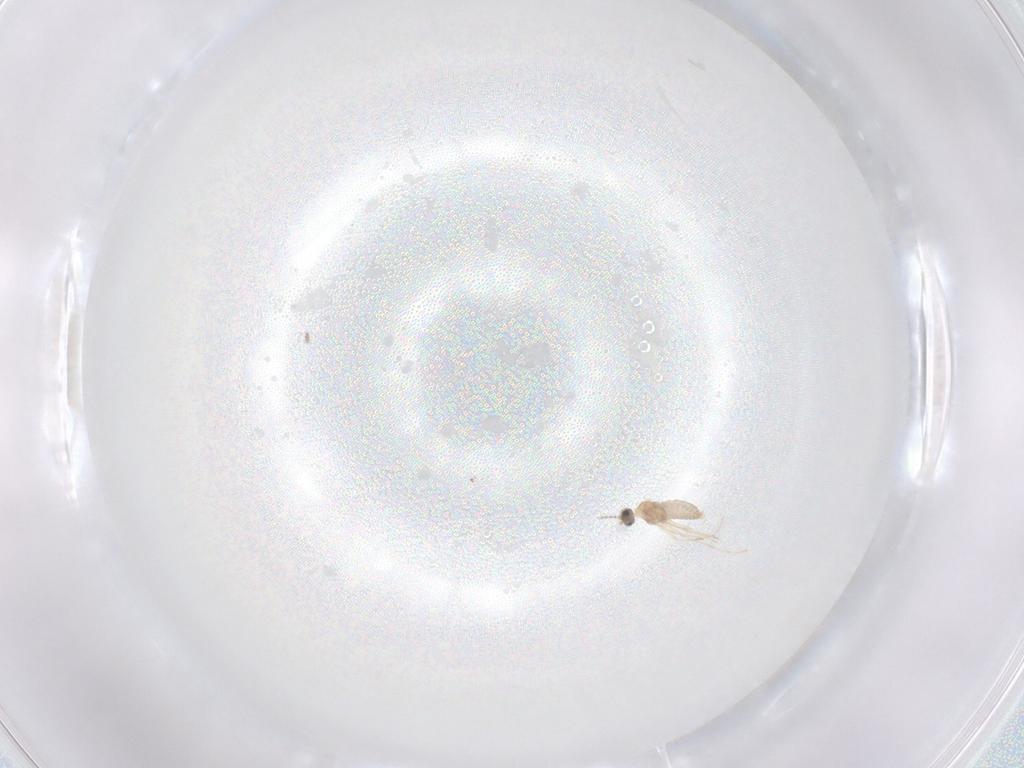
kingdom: Animalia
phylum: Arthropoda
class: Insecta
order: Diptera
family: Cecidomyiidae
